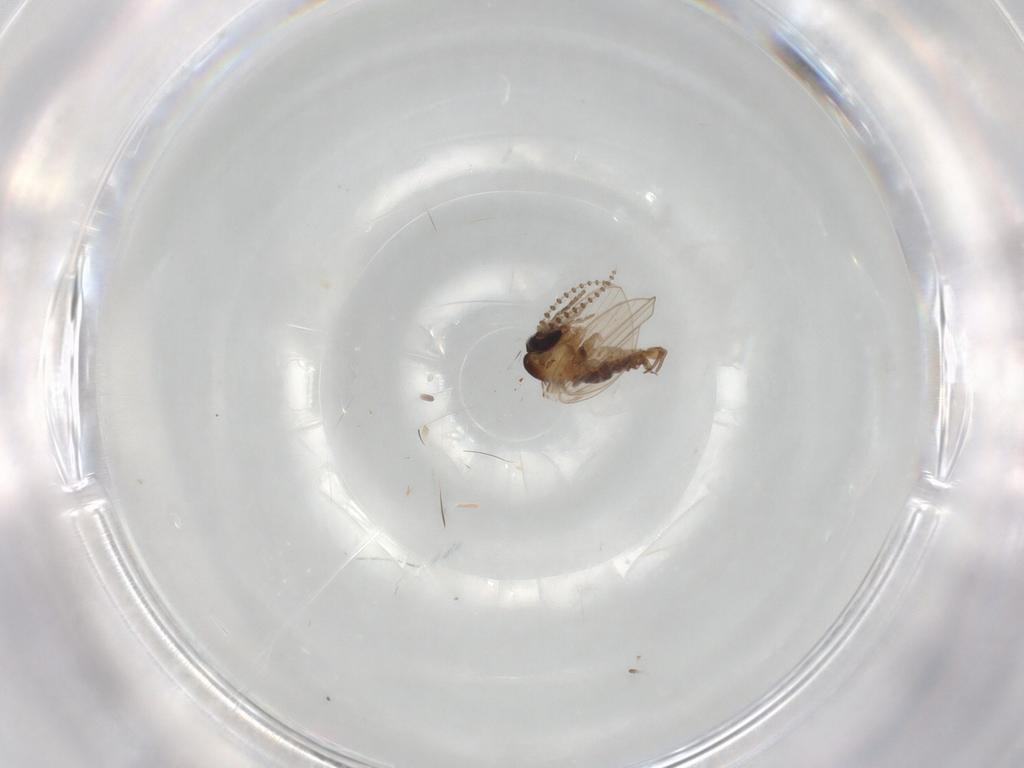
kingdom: Animalia
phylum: Arthropoda
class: Insecta
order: Diptera
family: Psychodidae
